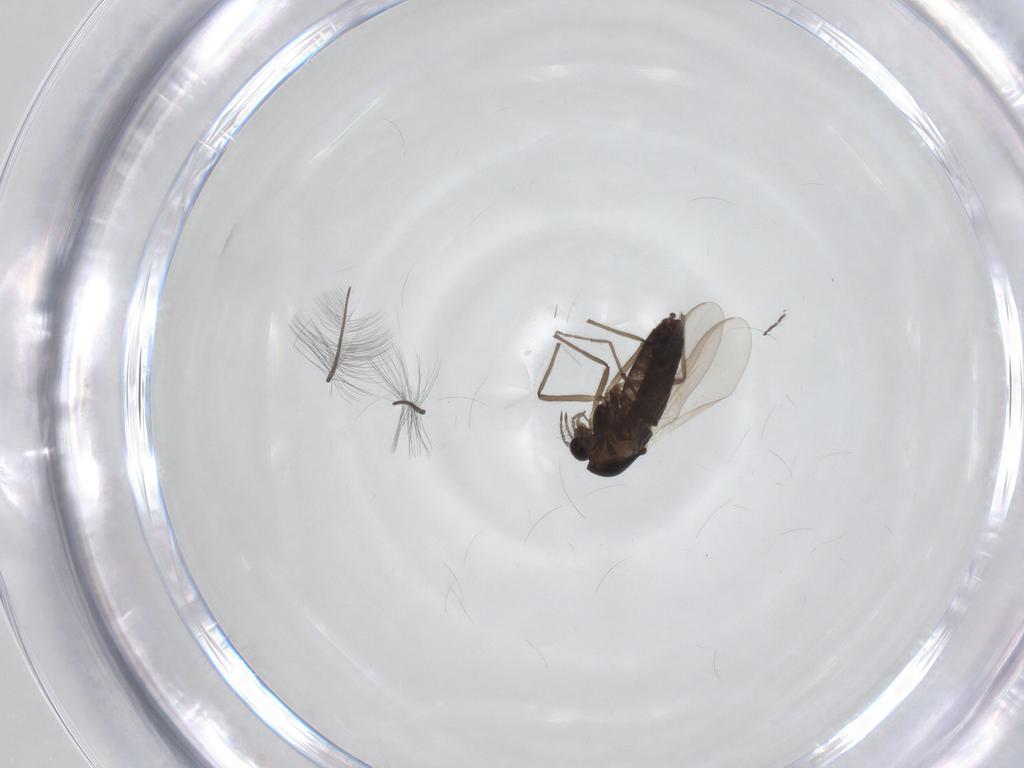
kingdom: Animalia
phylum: Arthropoda
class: Insecta
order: Diptera
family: Chironomidae
